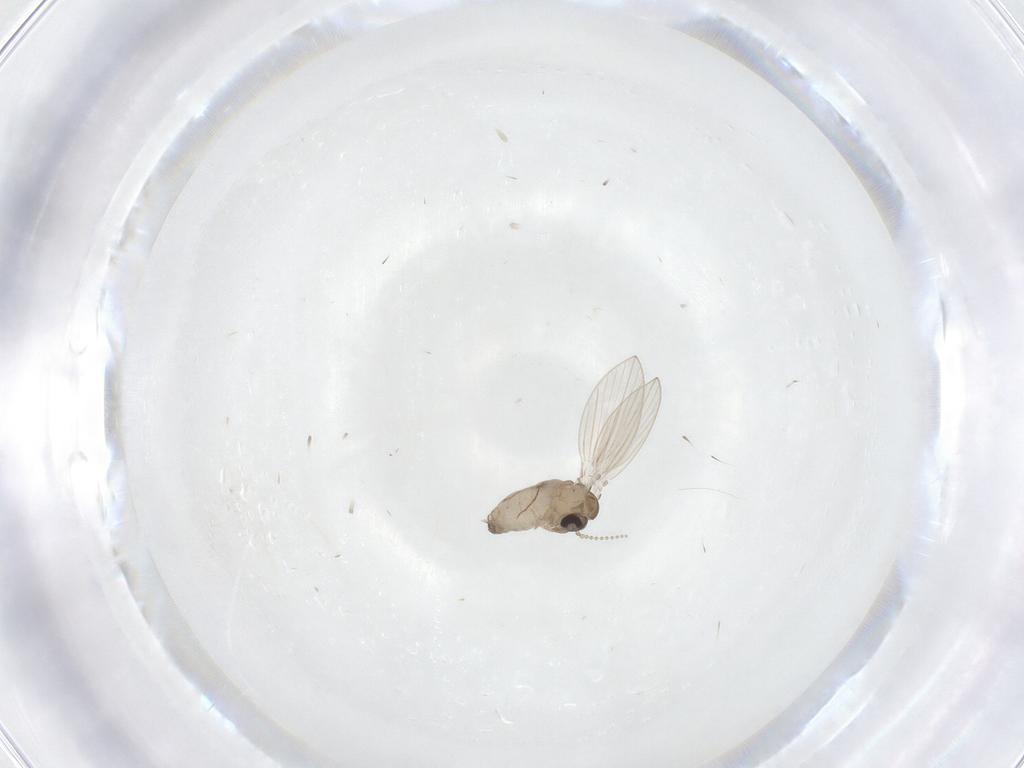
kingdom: Animalia
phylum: Arthropoda
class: Insecta
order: Diptera
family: Psychodidae
